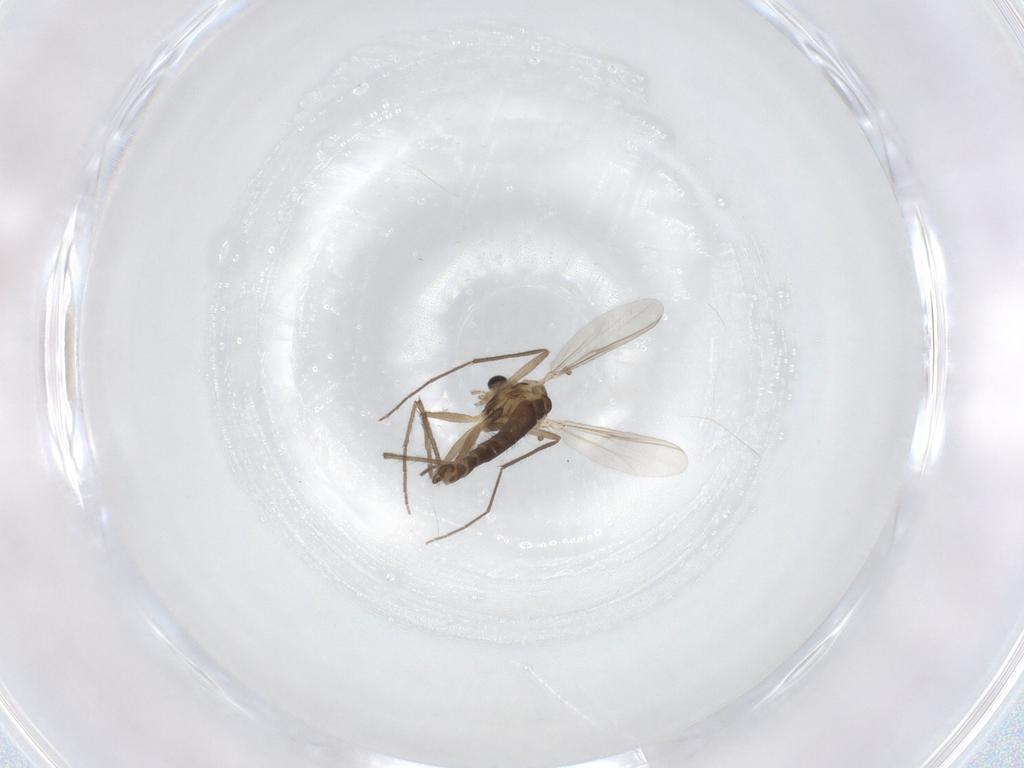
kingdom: Animalia
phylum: Arthropoda
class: Insecta
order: Diptera
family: Chironomidae
